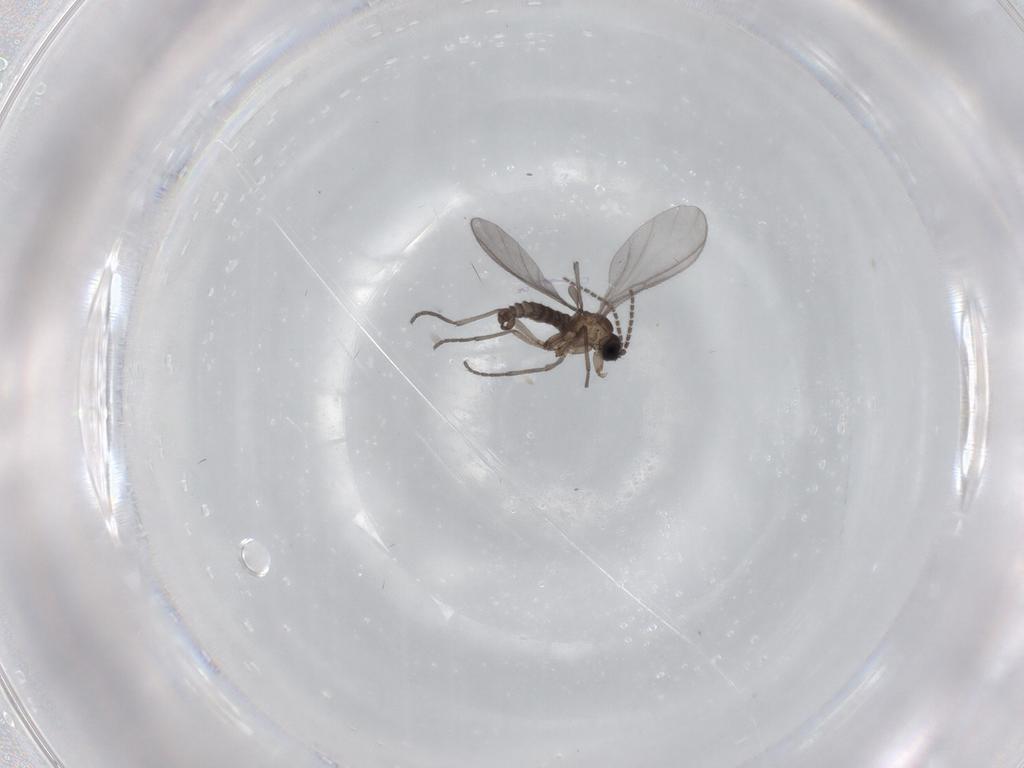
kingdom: Animalia
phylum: Arthropoda
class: Insecta
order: Diptera
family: Sciaridae
